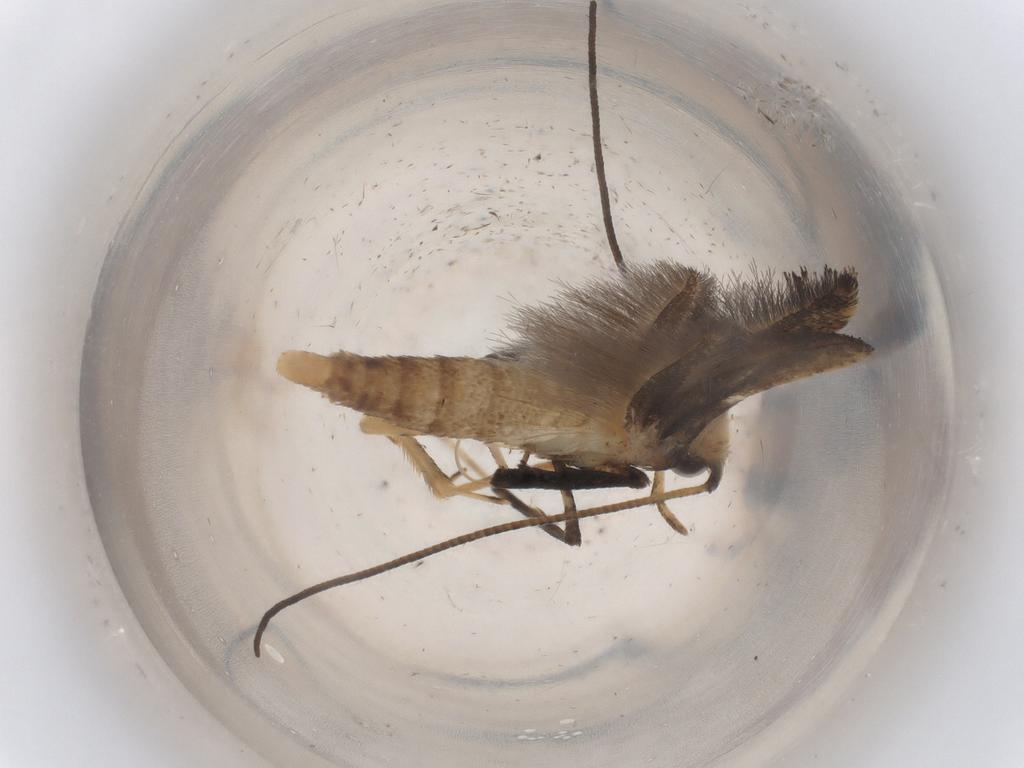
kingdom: Animalia
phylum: Arthropoda
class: Insecta
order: Lepidoptera
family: Gracillariidae
